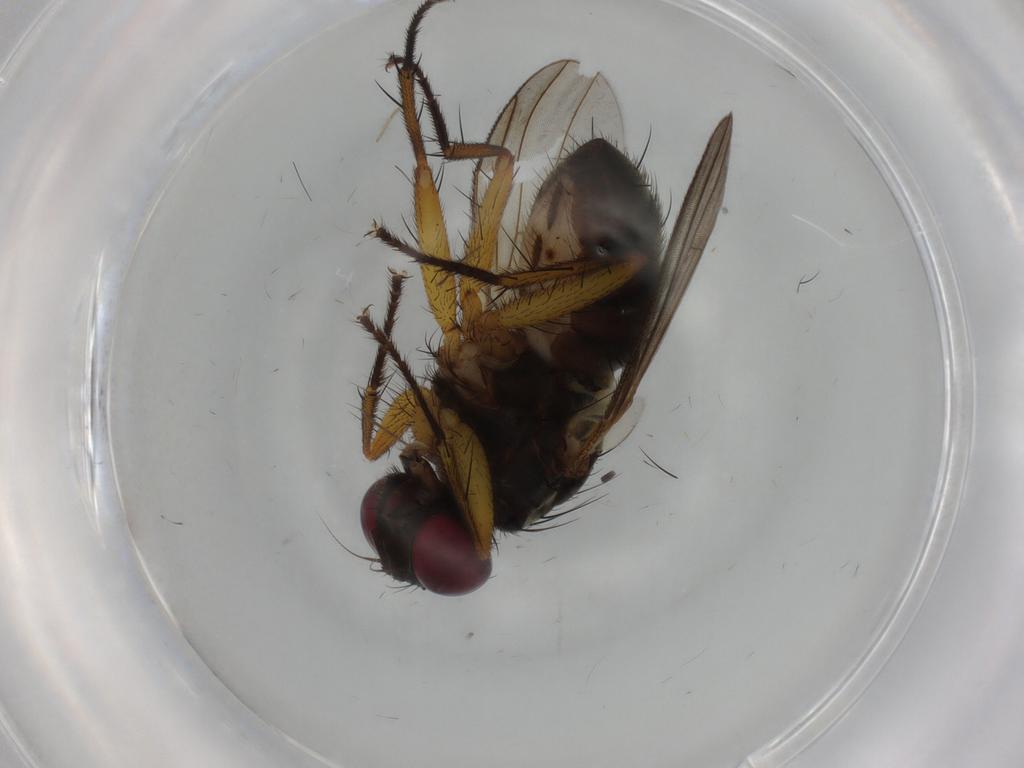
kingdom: Animalia
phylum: Arthropoda
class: Insecta
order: Diptera
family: Muscidae
